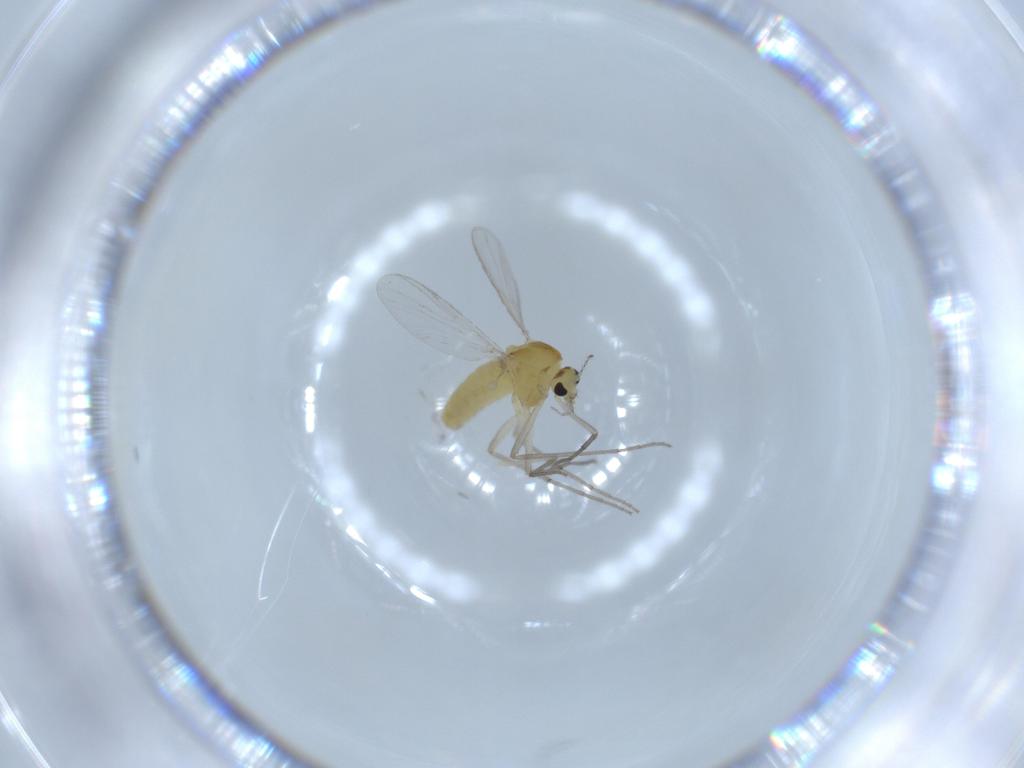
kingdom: Animalia
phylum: Arthropoda
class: Insecta
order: Diptera
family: Chironomidae
